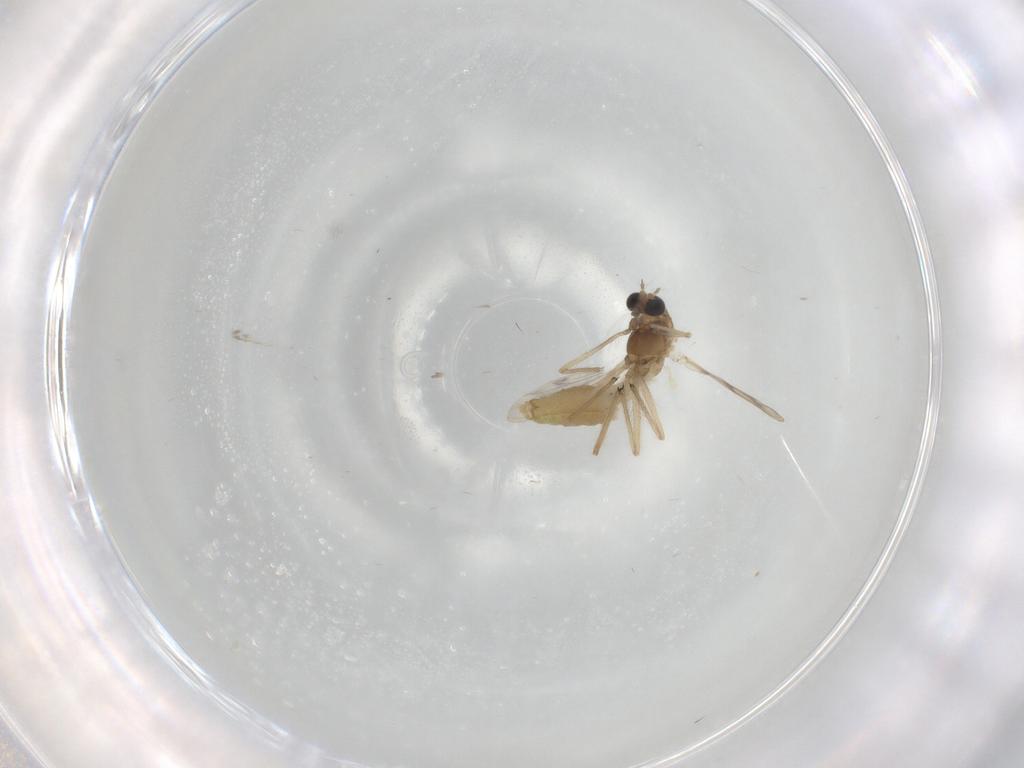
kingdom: Animalia
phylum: Arthropoda
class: Insecta
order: Diptera
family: Chironomidae
